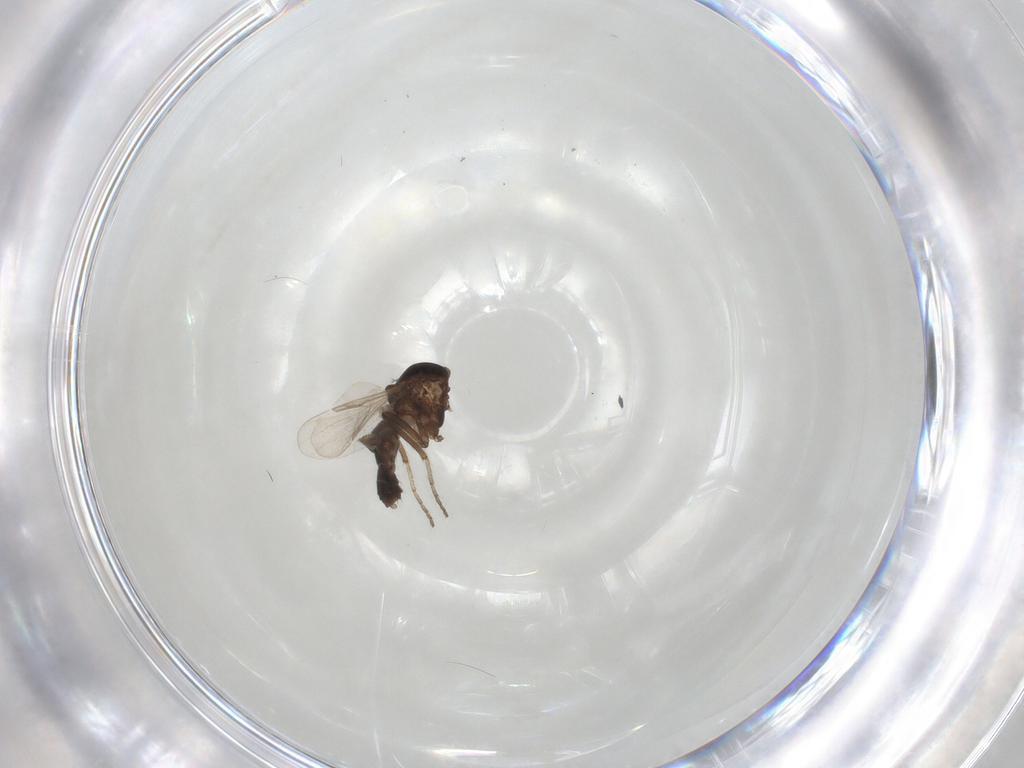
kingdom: Animalia
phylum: Arthropoda
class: Insecta
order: Diptera
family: Ceratopogonidae
